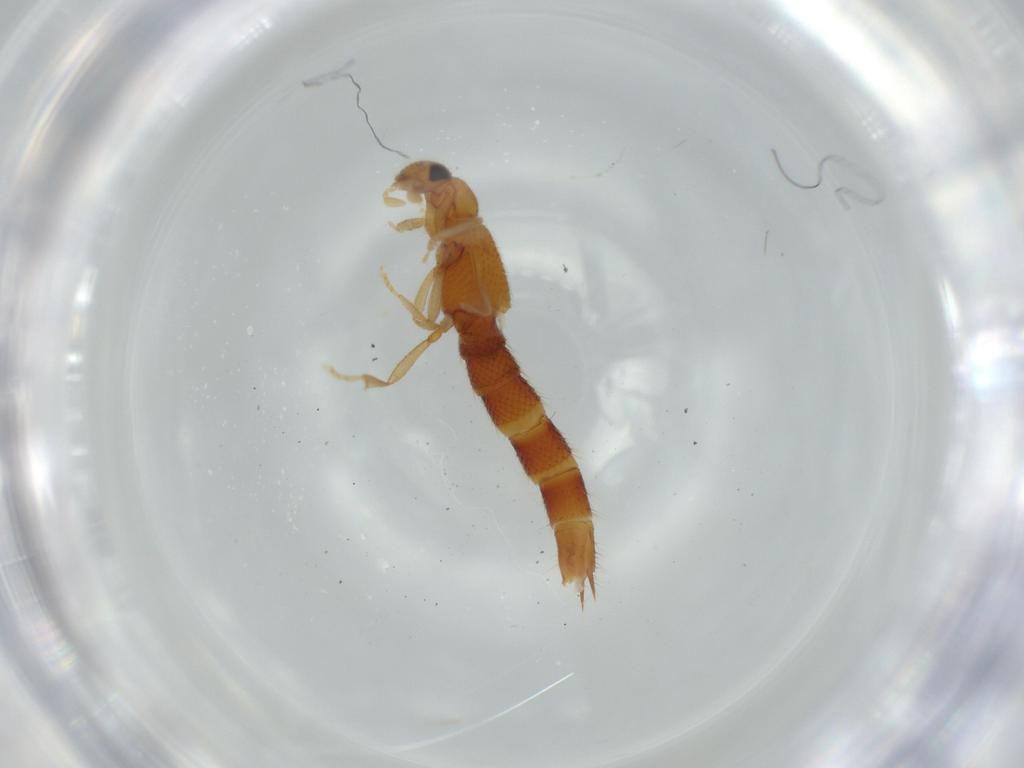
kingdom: Animalia
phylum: Arthropoda
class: Insecta
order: Coleoptera
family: Staphylinidae
